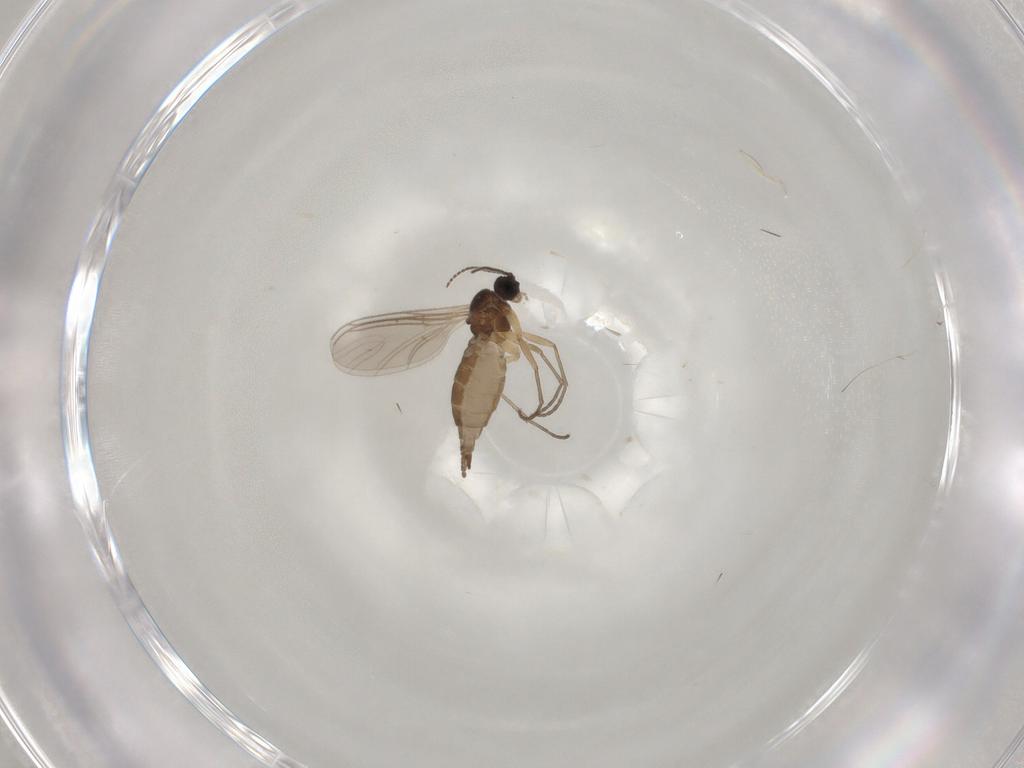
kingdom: Animalia
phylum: Arthropoda
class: Insecta
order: Diptera
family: Cecidomyiidae
